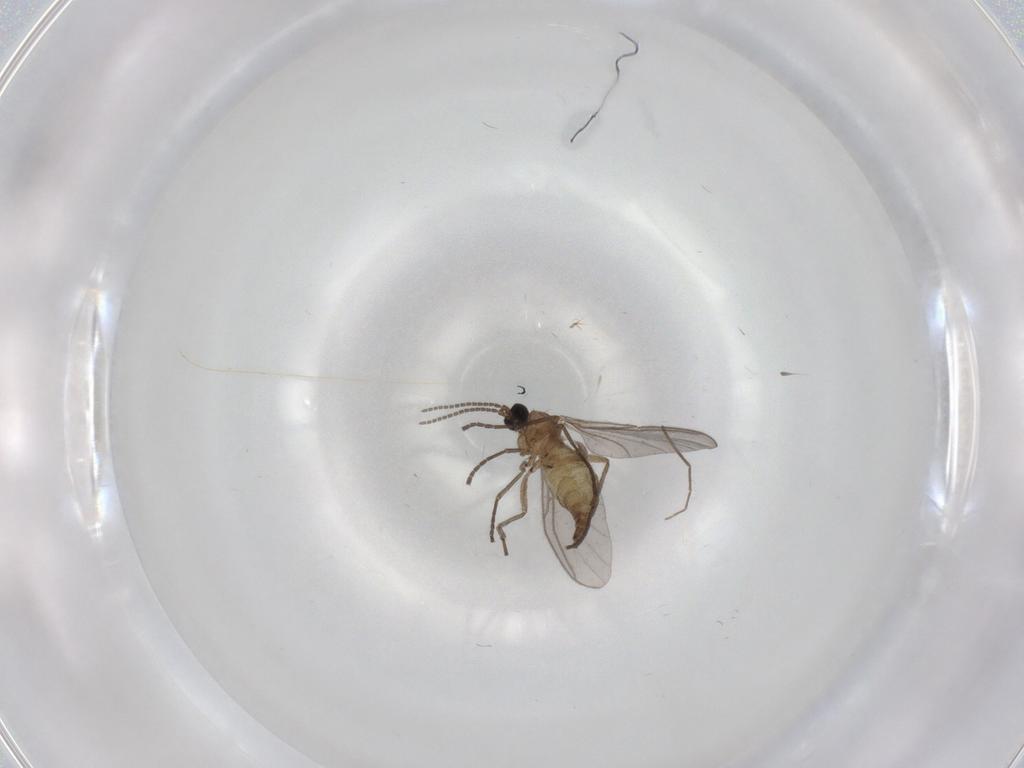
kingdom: Animalia
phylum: Arthropoda
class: Insecta
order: Diptera
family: Sciaridae
